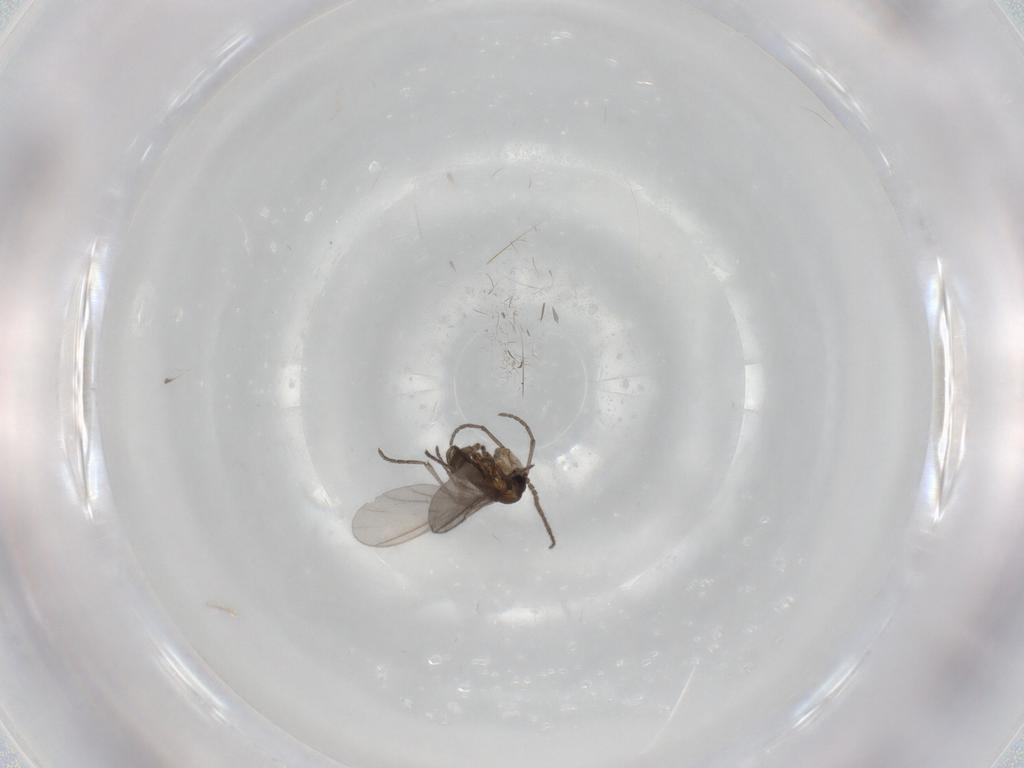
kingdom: Animalia
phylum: Arthropoda
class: Insecta
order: Diptera
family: Sciaridae
